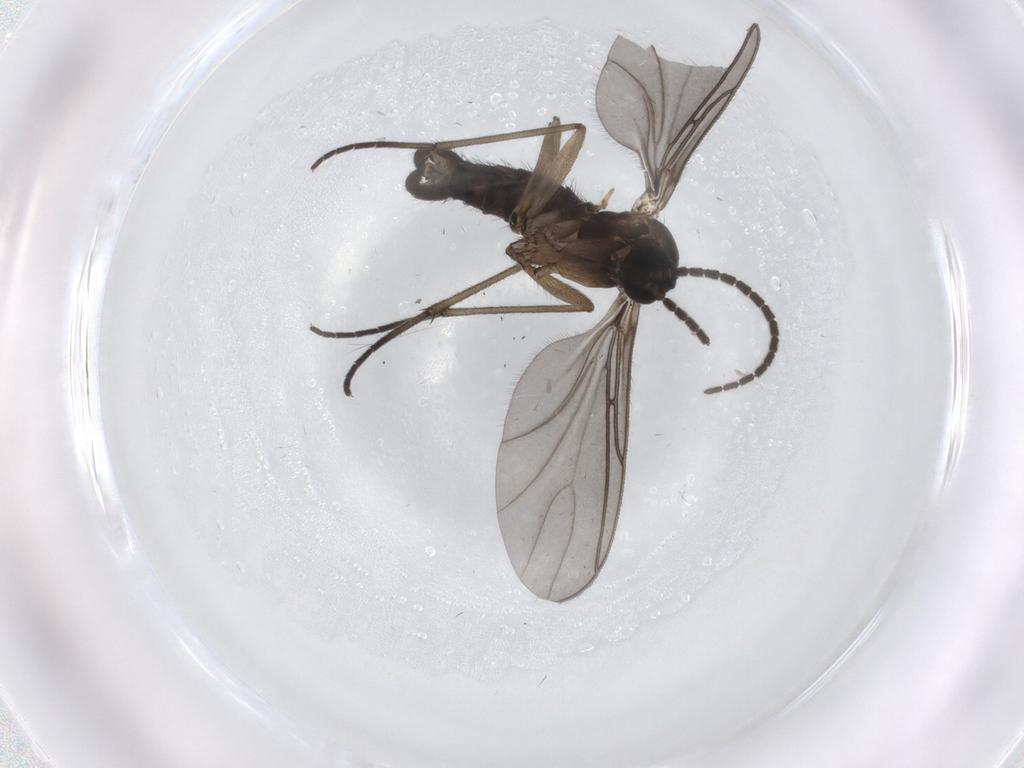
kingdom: Animalia
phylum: Arthropoda
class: Insecta
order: Diptera
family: Sciaridae
